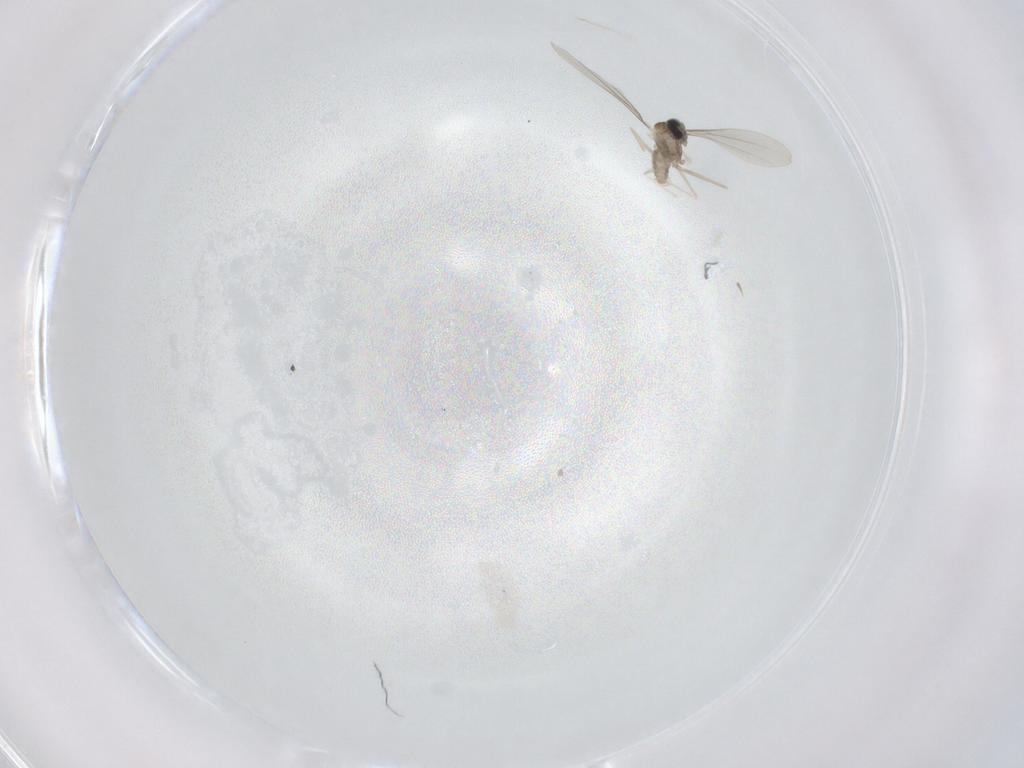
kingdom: Animalia
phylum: Arthropoda
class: Insecta
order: Diptera
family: Cecidomyiidae
